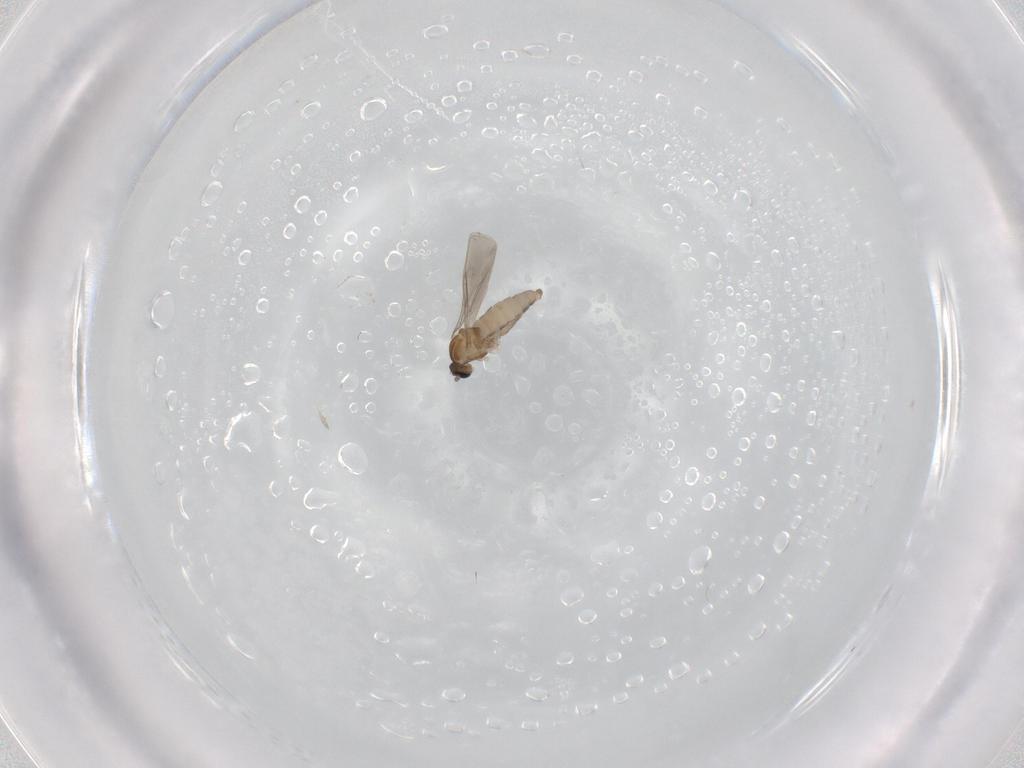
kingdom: Animalia
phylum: Arthropoda
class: Insecta
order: Diptera
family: Cecidomyiidae
